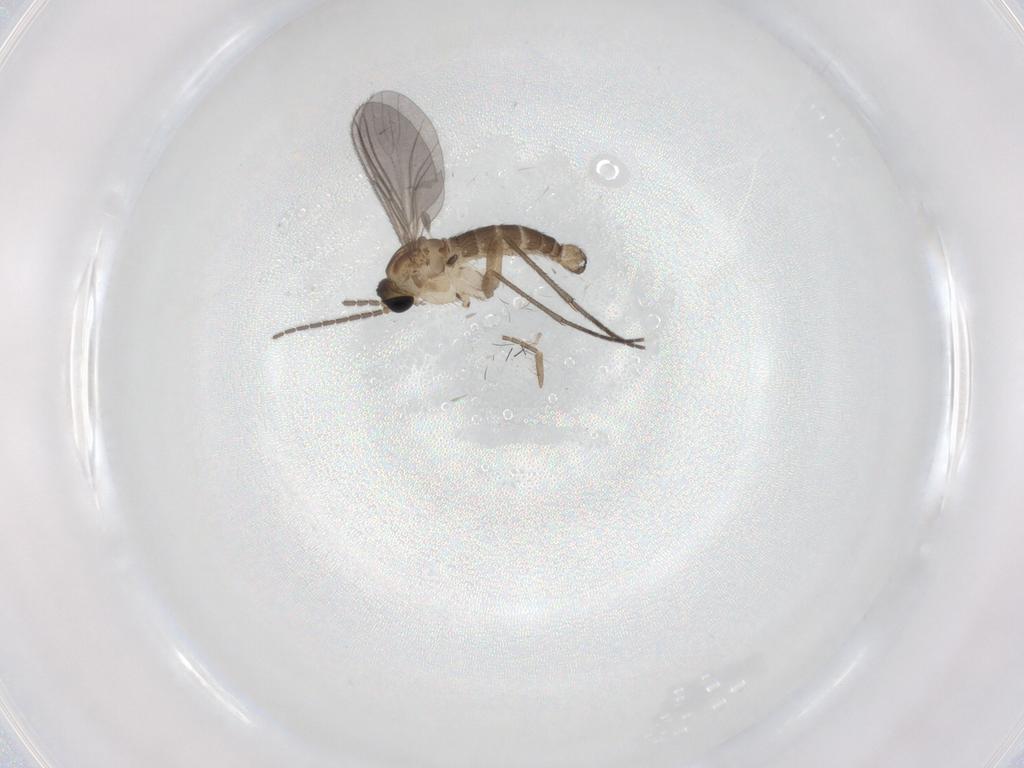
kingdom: Animalia
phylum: Arthropoda
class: Insecta
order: Diptera
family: Sciaridae
